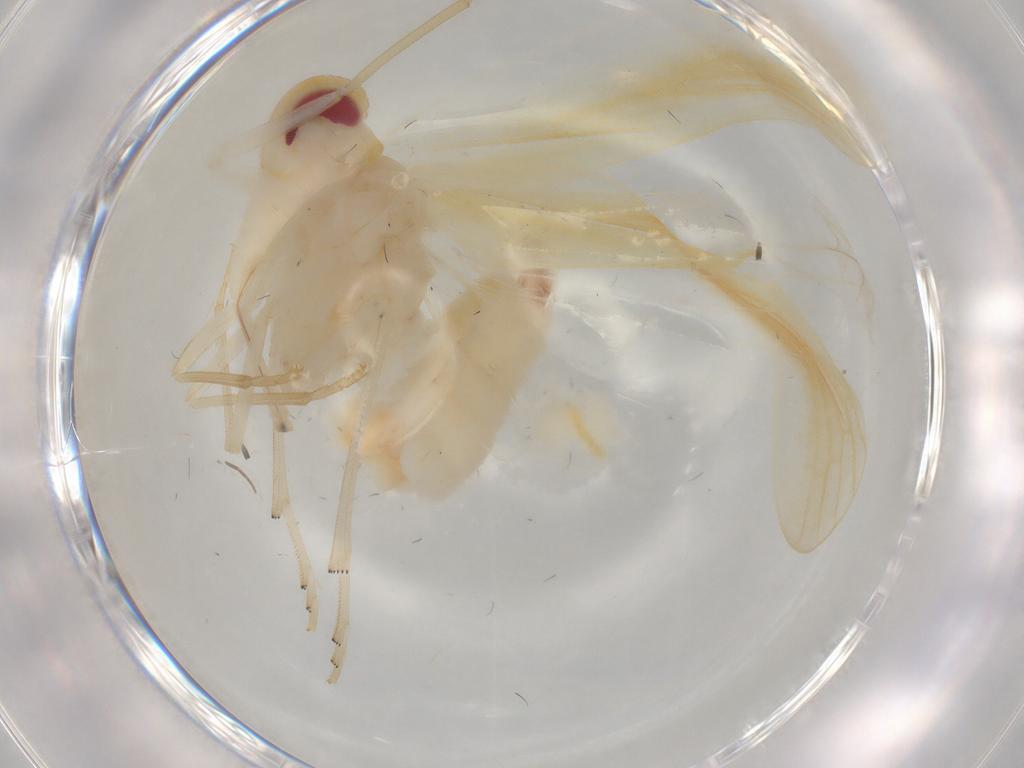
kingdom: Animalia
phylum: Arthropoda
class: Insecta
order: Hemiptera
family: Derbidae
